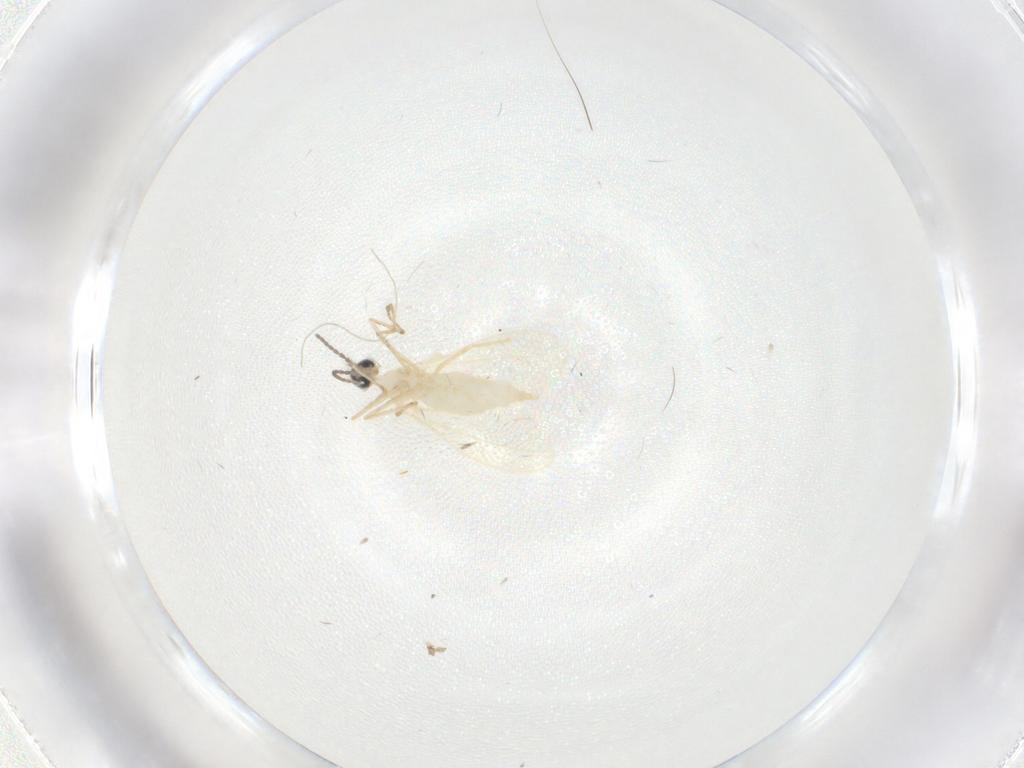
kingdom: Animalia
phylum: Arthropoda
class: Insecta
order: Diptera
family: Cecidomyiidae
